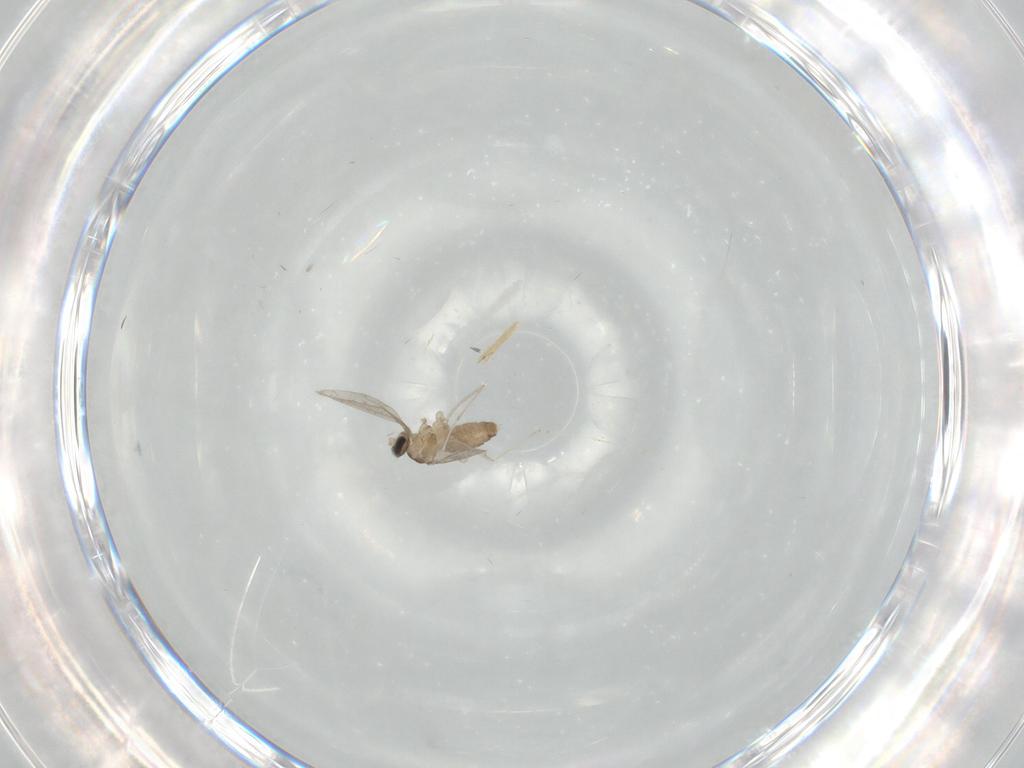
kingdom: Animalia
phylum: Arthropoda
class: Insecta
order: Diptera
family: Cecidomyiidae
